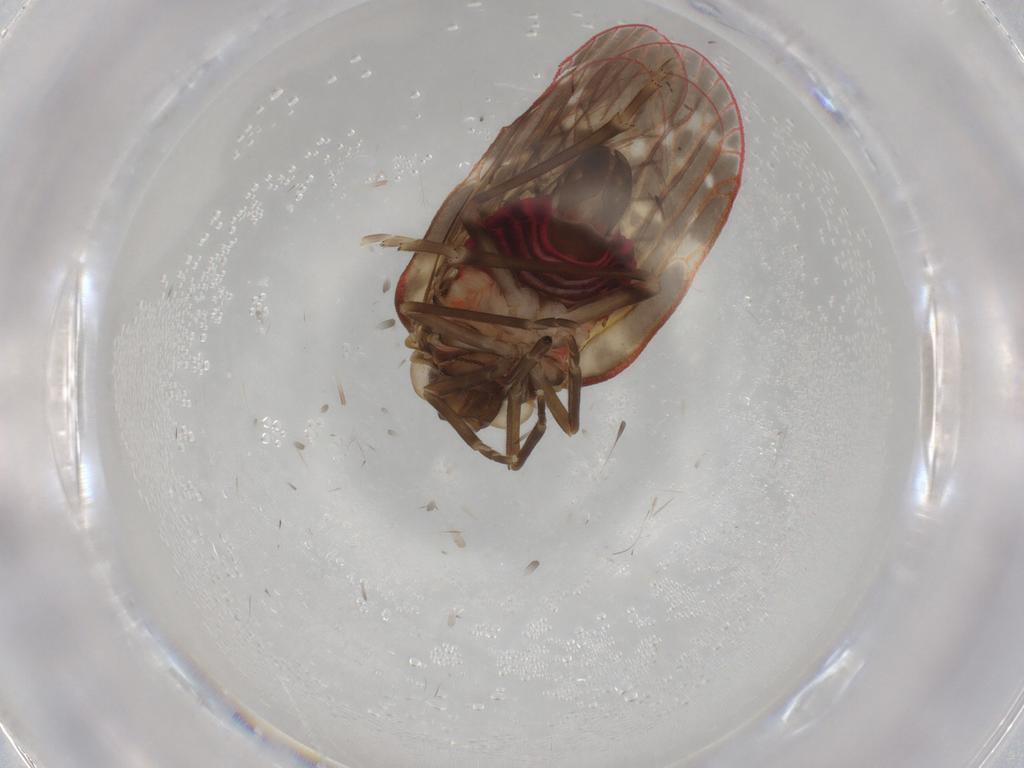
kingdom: Animalia
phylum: Arthropoda
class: Insecta
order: Hemiptera
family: Achilidae
